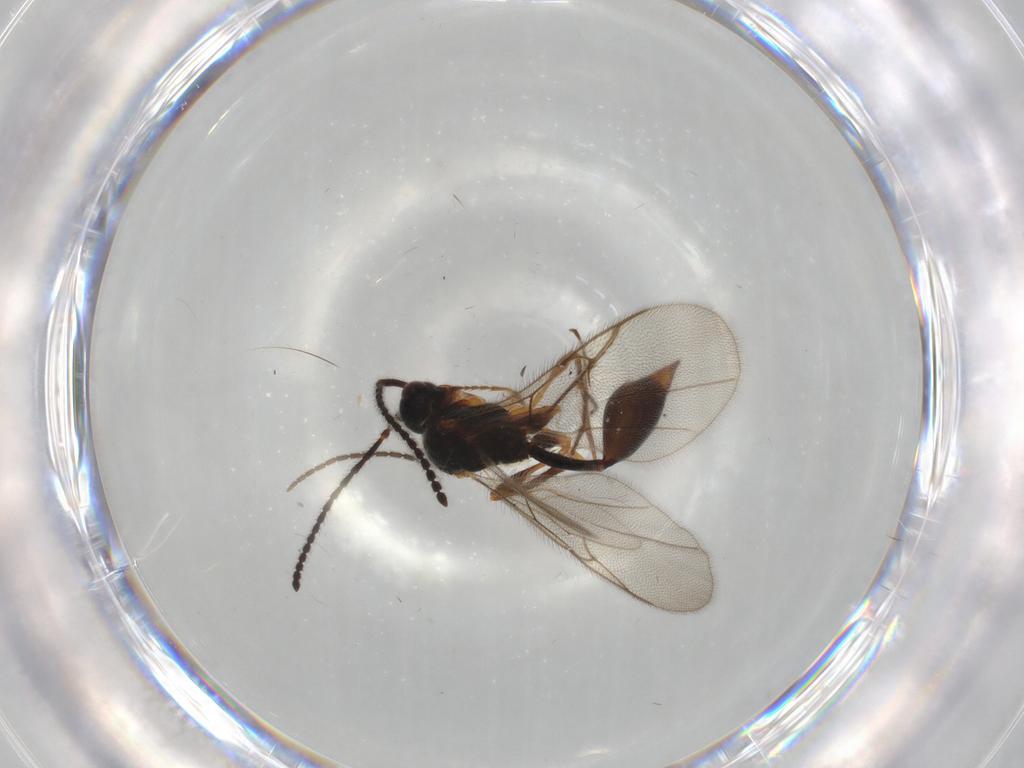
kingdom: Animalia
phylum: Arthropoda
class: Insecta
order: Hymenoptera
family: Diapriidae
